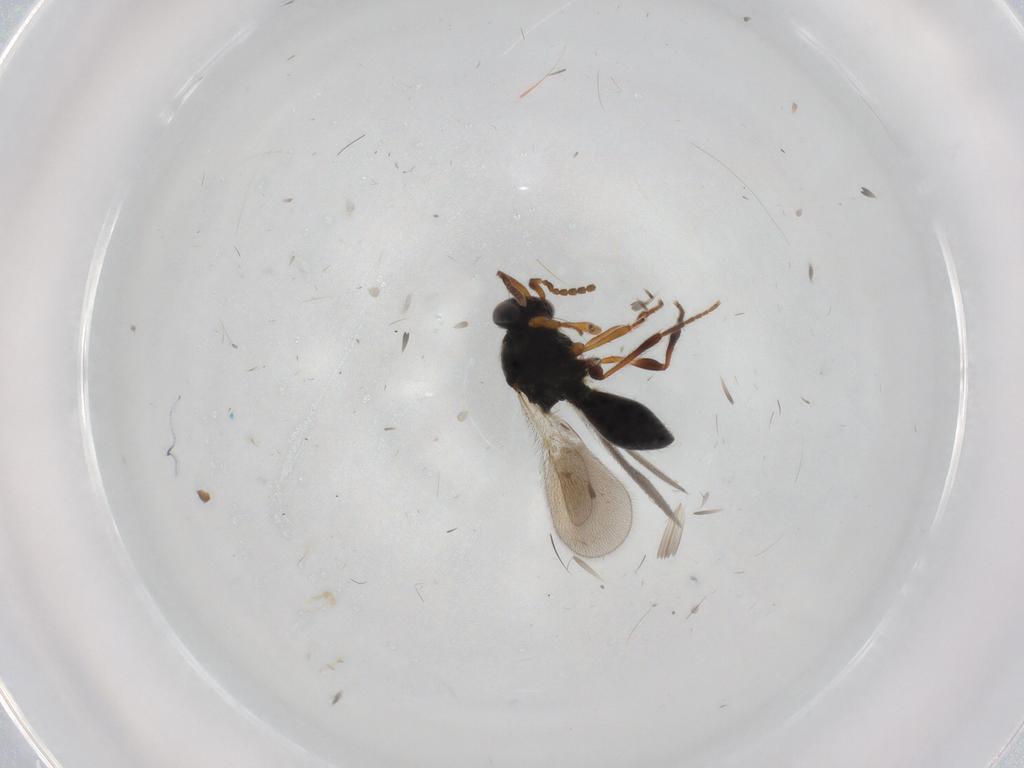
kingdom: Animalia
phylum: Arthropoda
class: Insecta
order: Hymenoptera
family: Platygastridae
